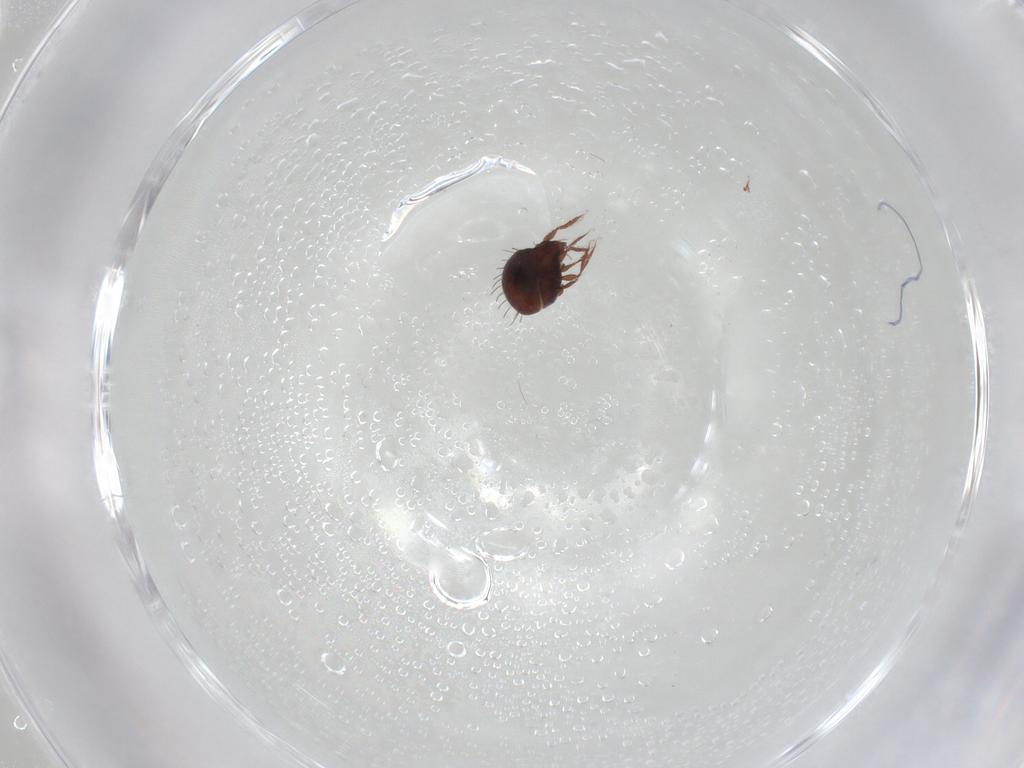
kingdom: Animalia
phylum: Arthropoda
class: Arachnida
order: Sarcoptiformes
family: Caloppiidae
